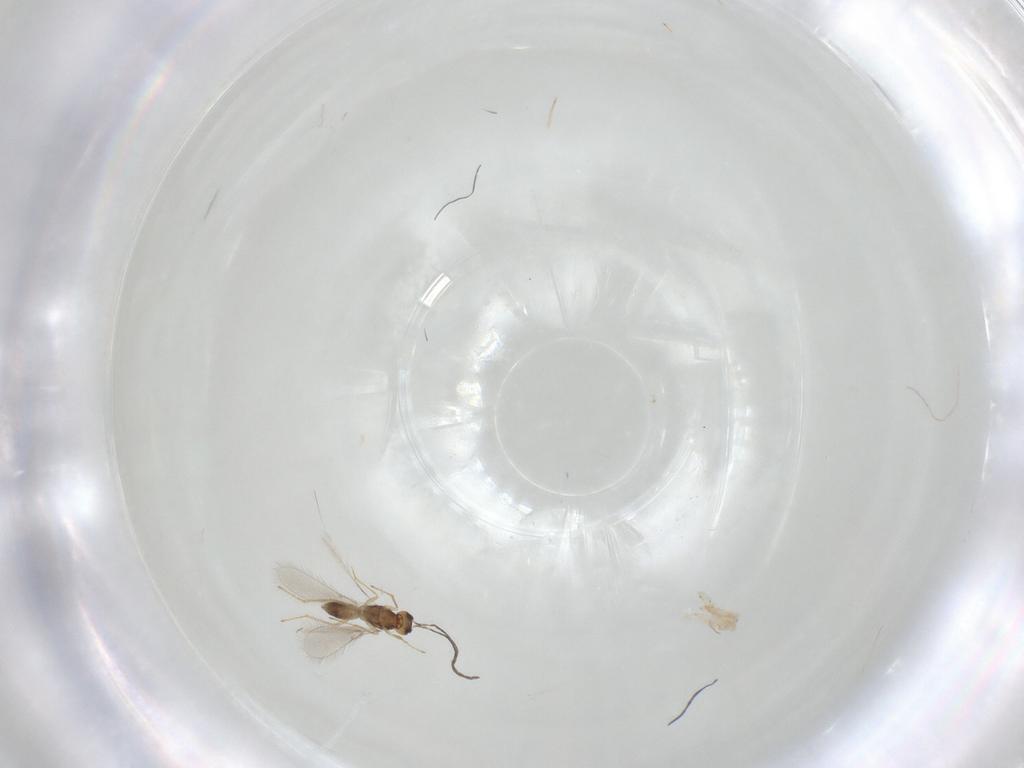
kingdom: Animalia
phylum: Arthropoda
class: Insecta
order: Hymenoptera
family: Mymaridae
